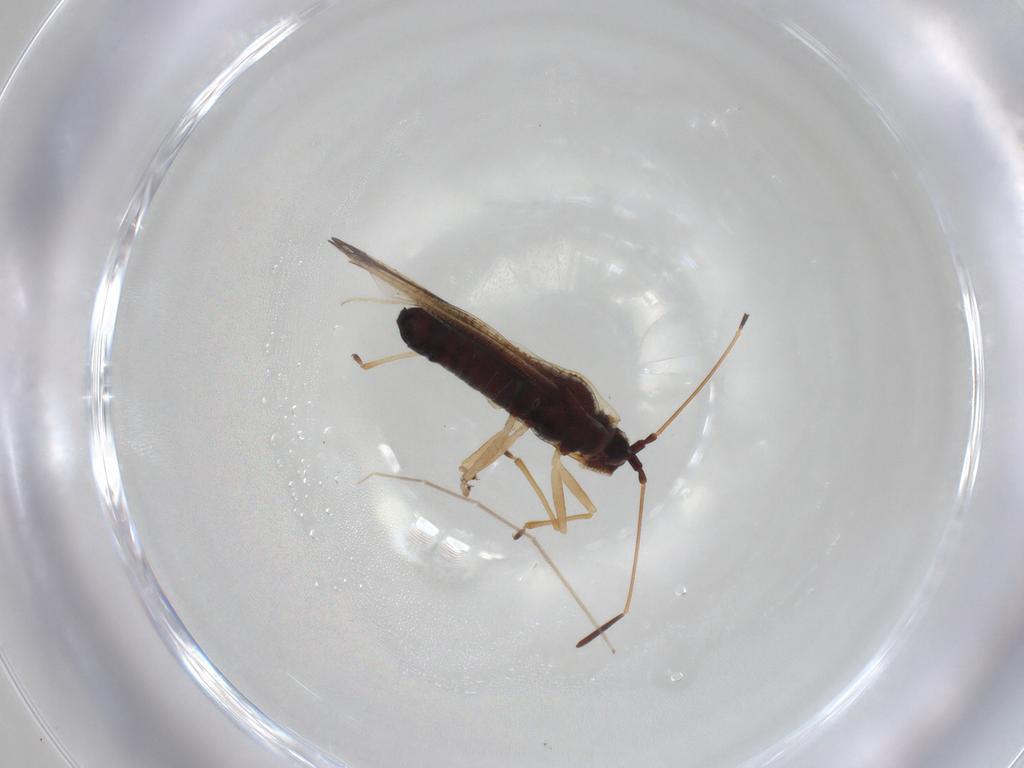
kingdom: Animalia
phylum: Arthropoda
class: Insecta
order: Hemiptera
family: Tingidae
